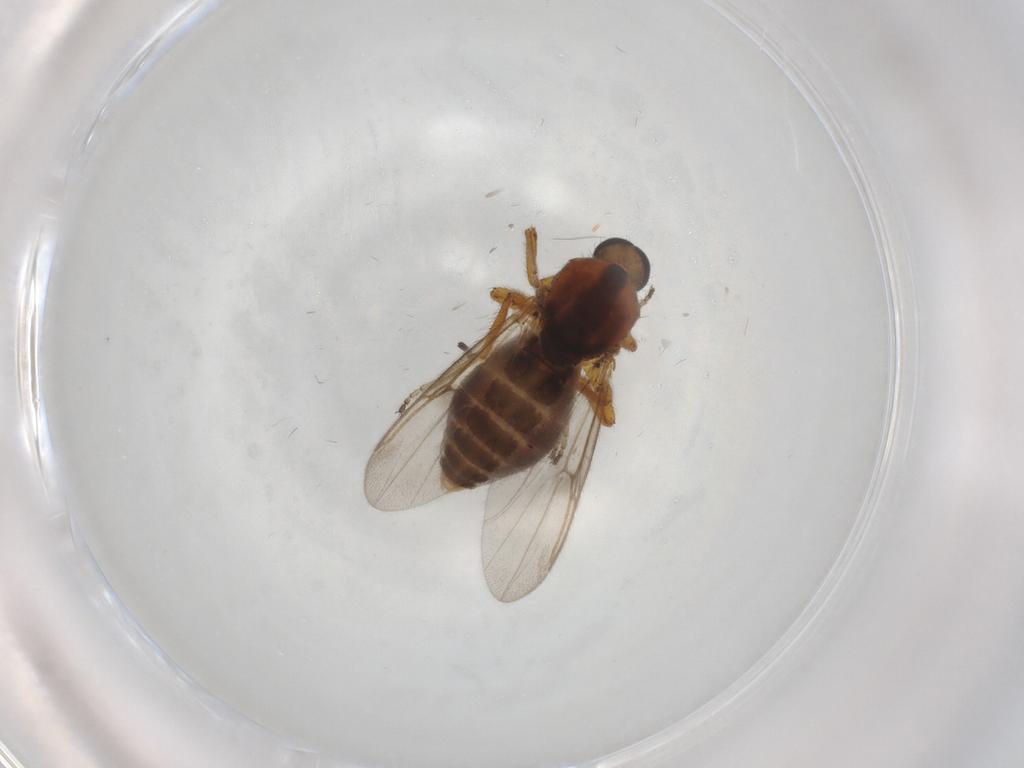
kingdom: Animalia
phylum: Arthropoda
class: Insecta
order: Diptera
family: Ceratopogonidae
